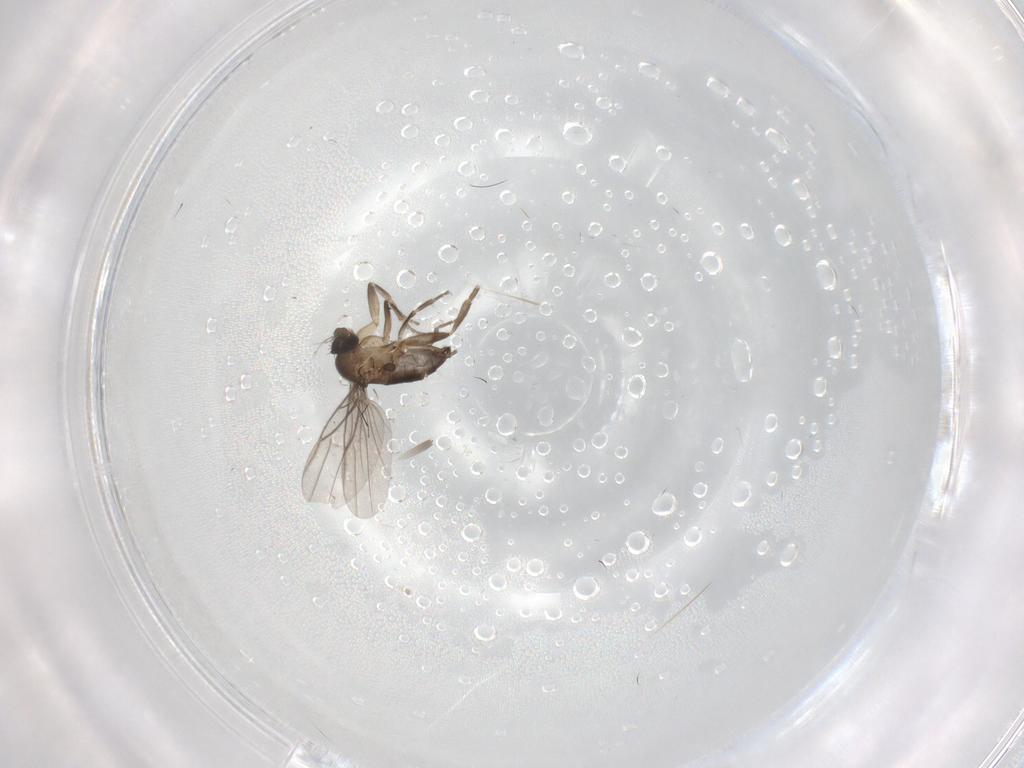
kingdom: Animalia
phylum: Arthropoda
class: Insecta
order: Diptera
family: Phoridae
